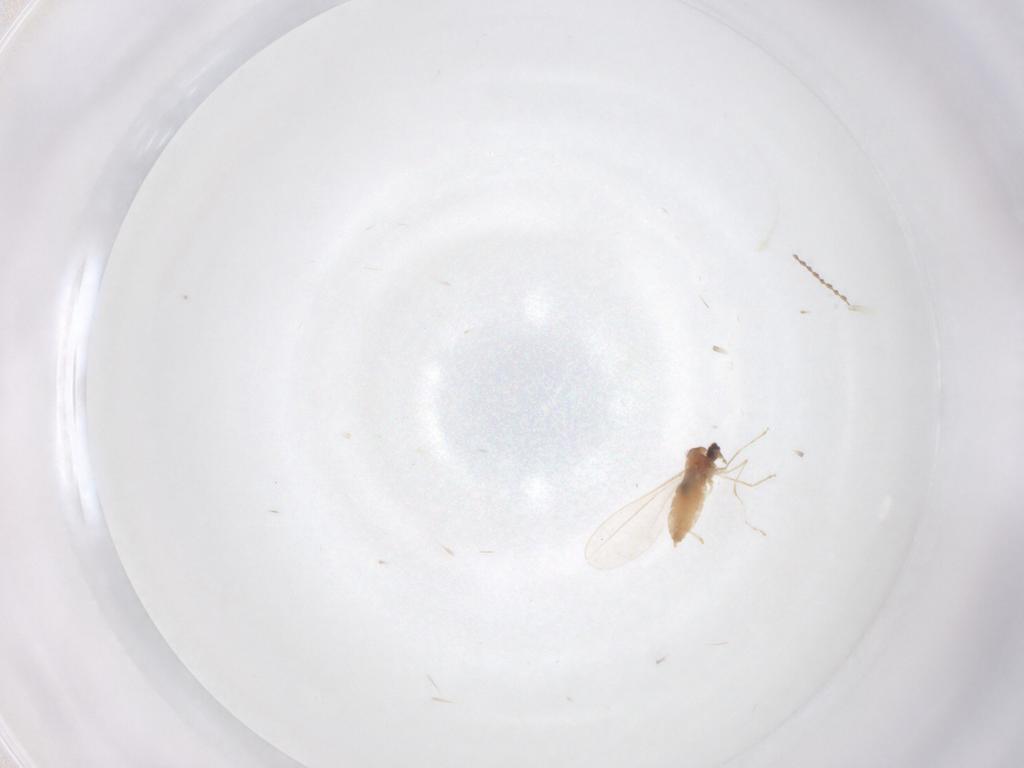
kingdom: Animalia
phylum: Arthropoda
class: Insecta
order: Diptera
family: Cecidomyiidae
